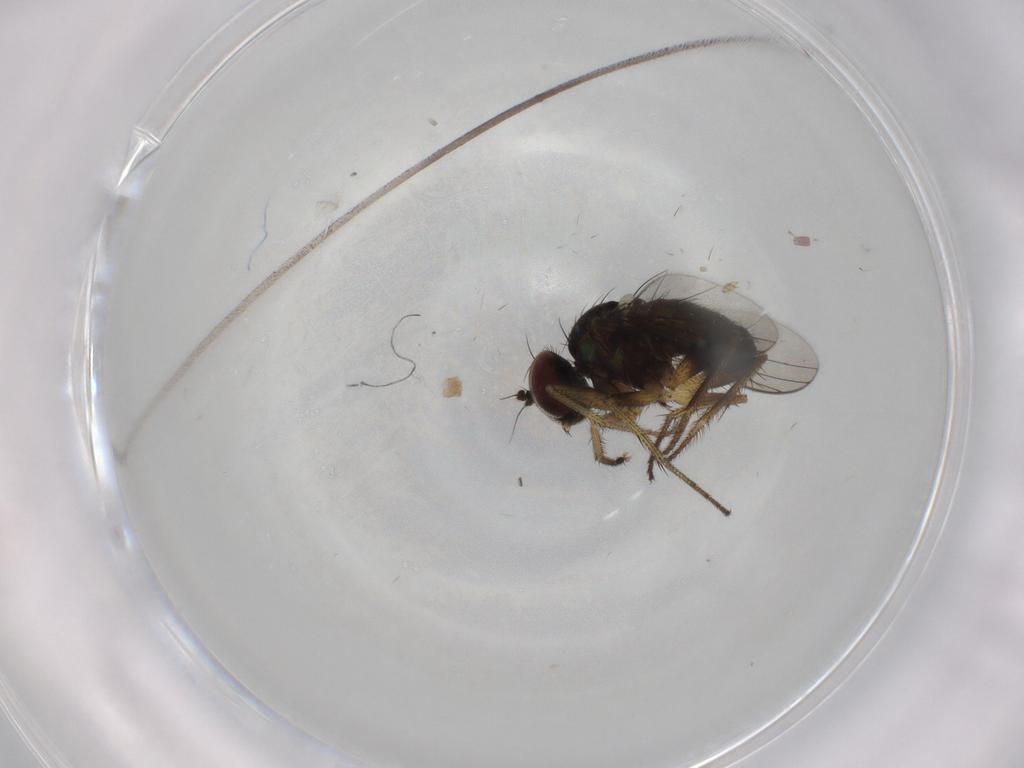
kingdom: Animalia
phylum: Arthropoda
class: Insecta
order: Diptera
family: Dolichopodidae
